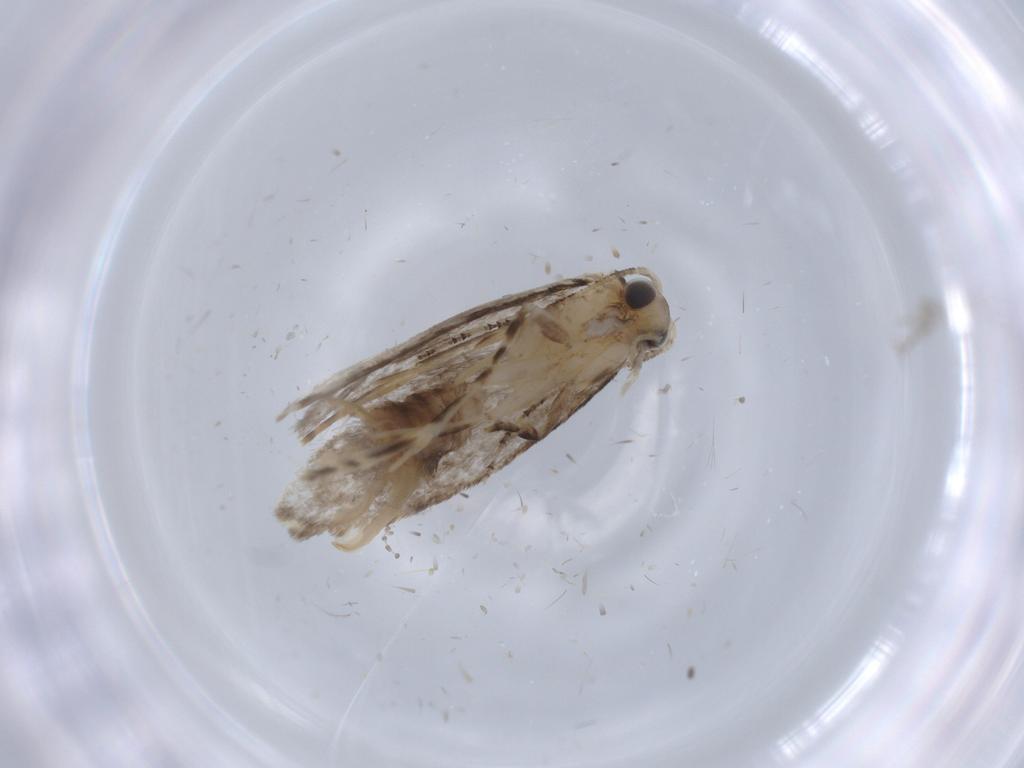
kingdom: Animalia
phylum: Arthropoda
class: Insecta
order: Lepidoptera
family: Tineidae
